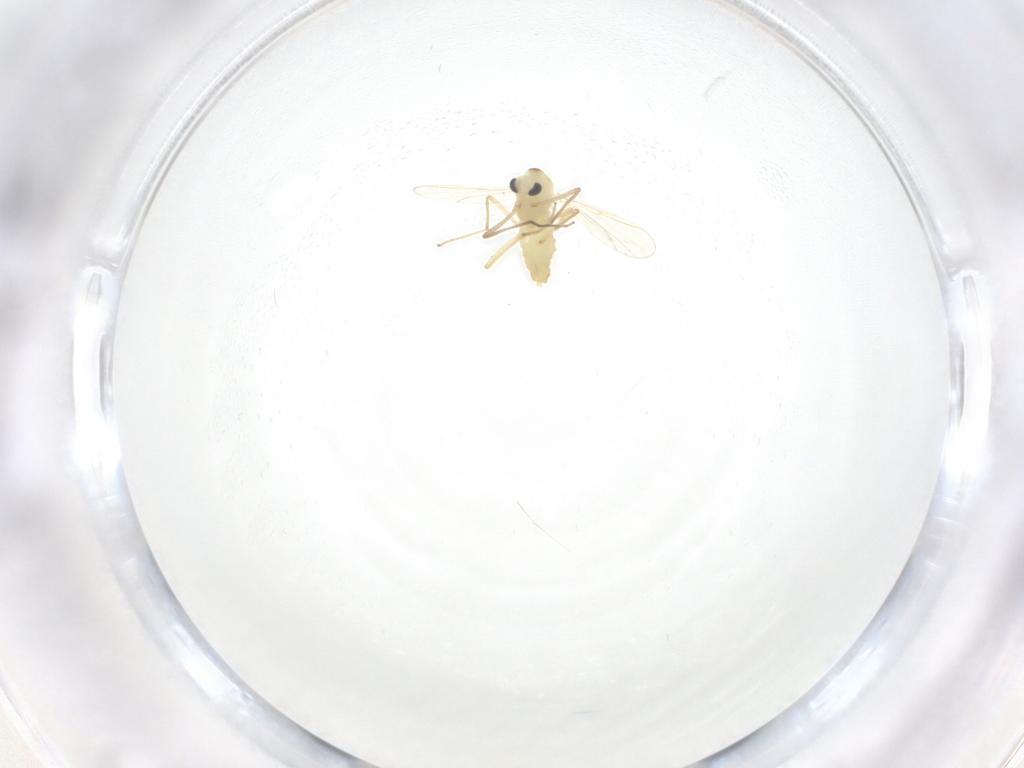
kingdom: Animalia
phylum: Arthropoda
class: Insecta
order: Diptera
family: Chironomidae
